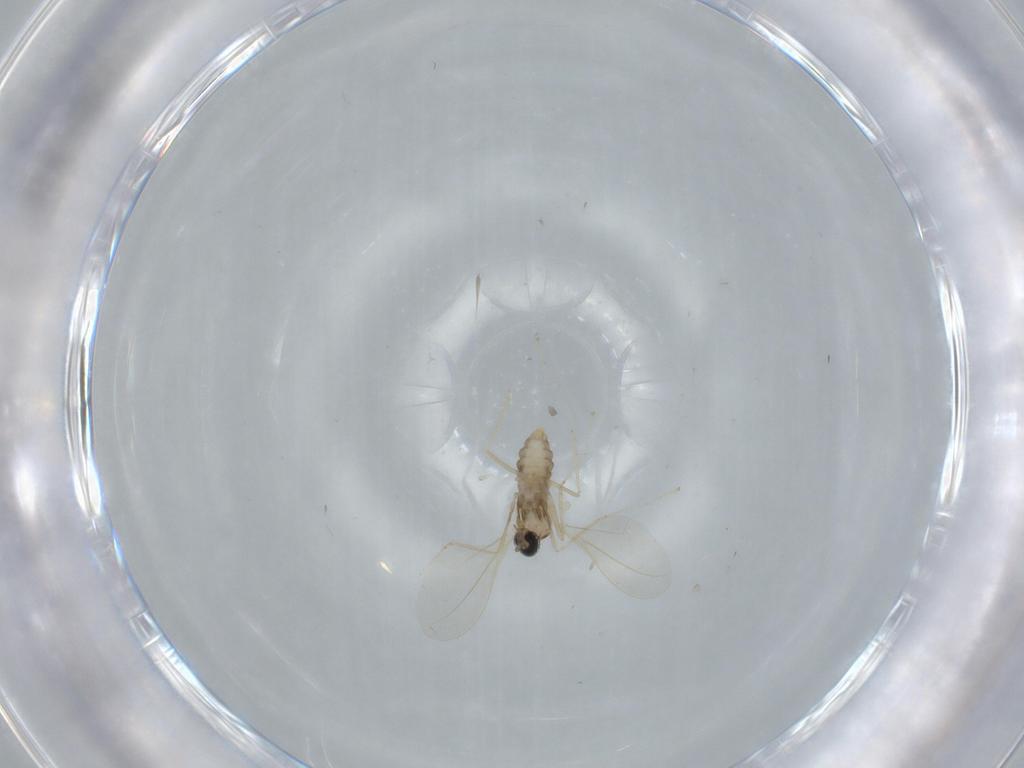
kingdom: Animalia
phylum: Arthropoda
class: Insecta
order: Diptera
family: Cecidomyiidae
